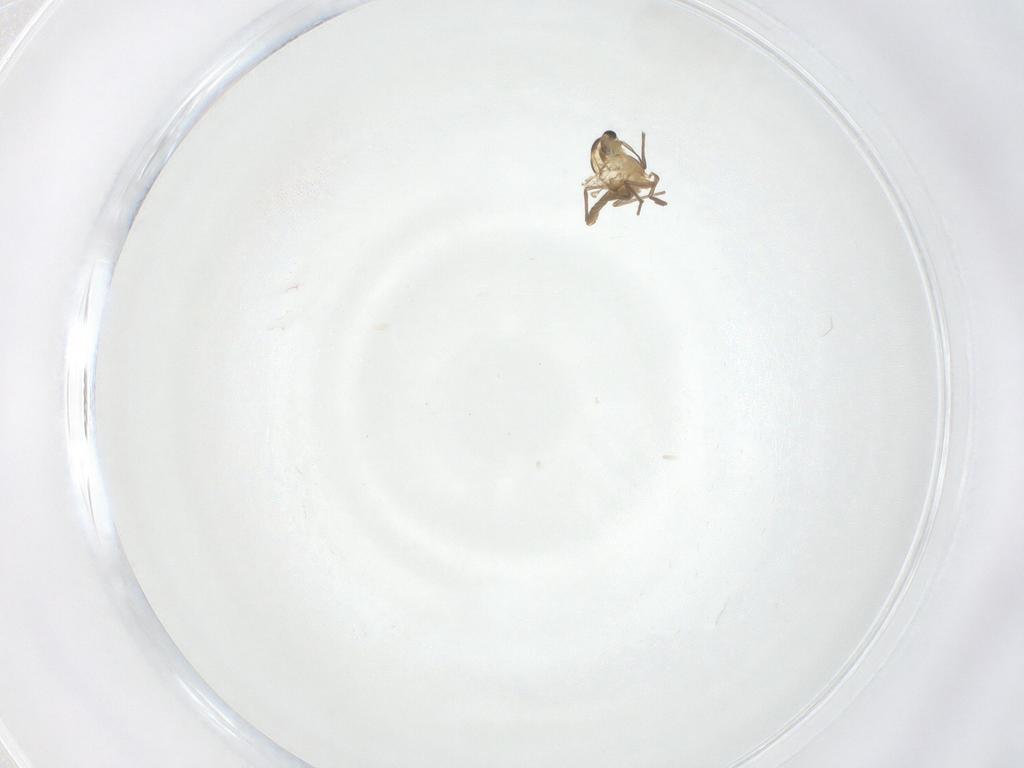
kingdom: Animalia
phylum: Arthropoda
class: Insecta
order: Diptera
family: Chironomidae
